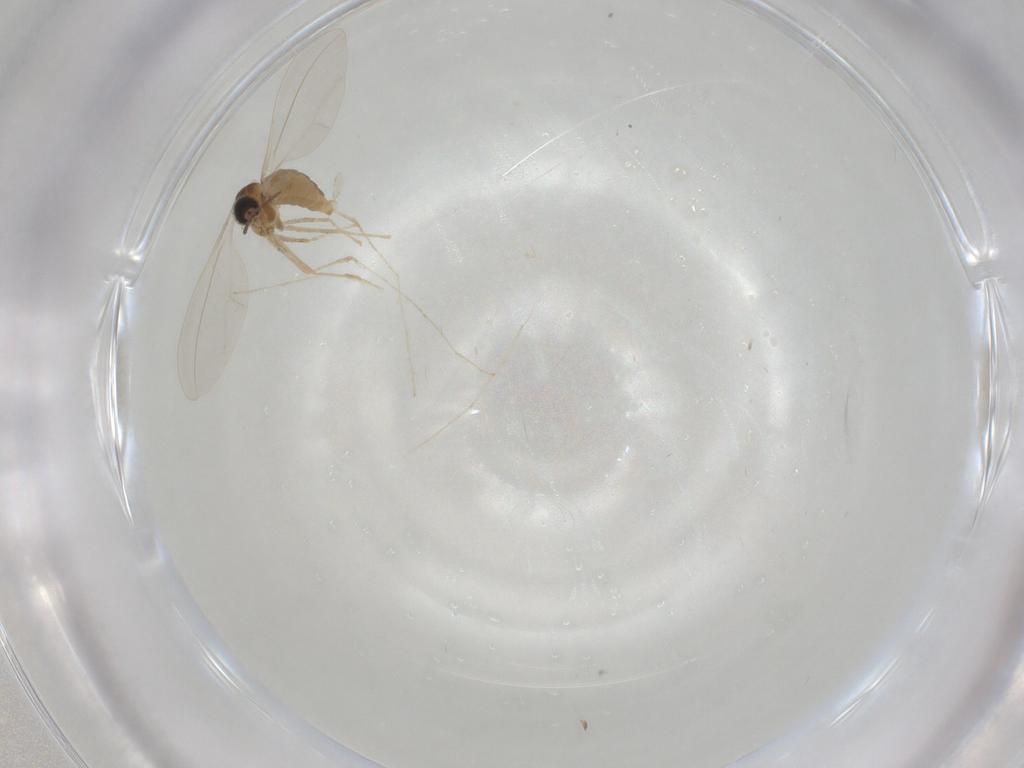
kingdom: Animalia
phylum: Arthropoda
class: Insecta
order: Diptera
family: Cecidomyiidae
